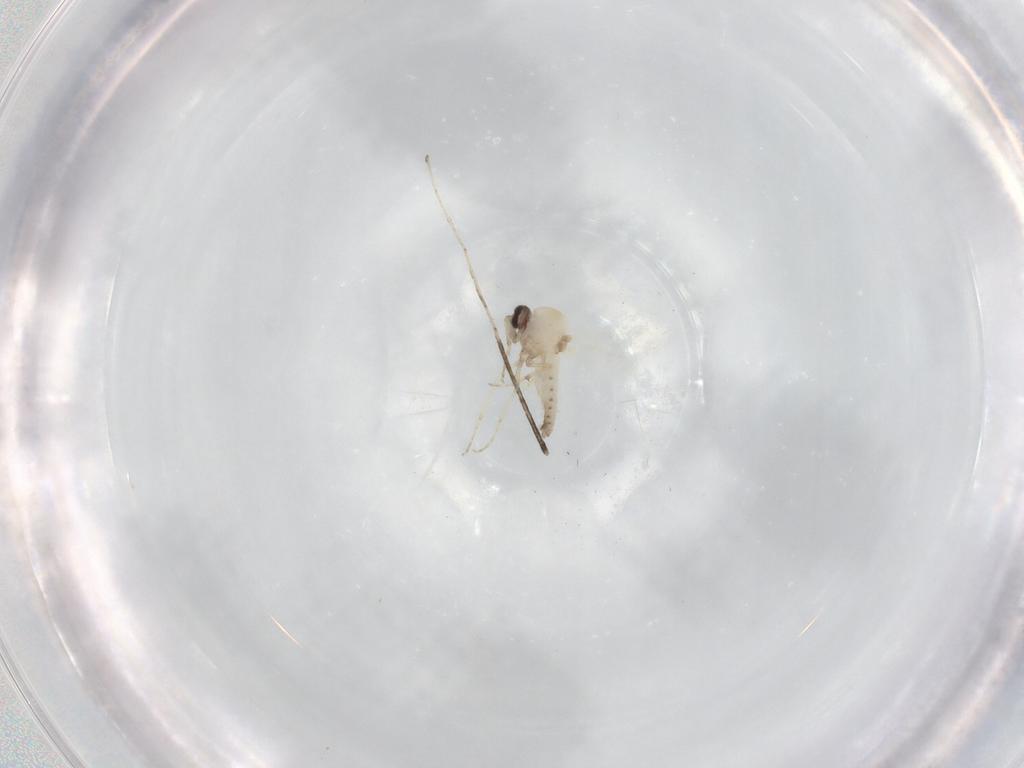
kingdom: Animalia
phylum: Arthropoda
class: Insecta
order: Diptera
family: Ceratopogonidae
